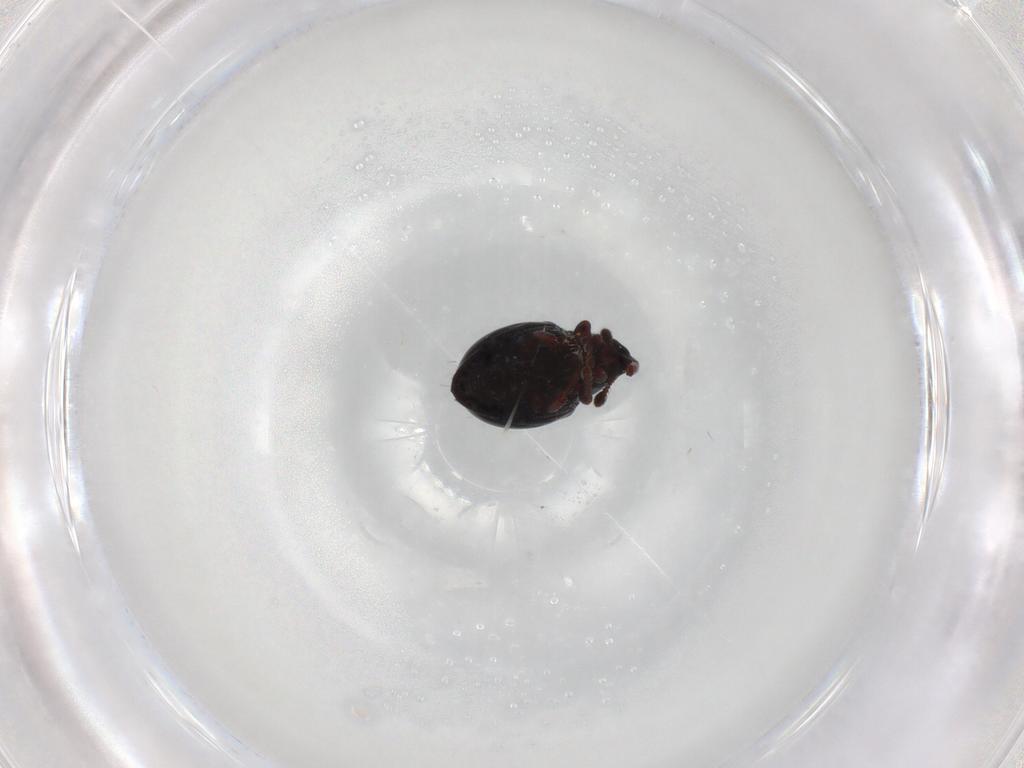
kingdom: Animalia
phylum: Arthropoda
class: Insecta
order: Coleoptera
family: Curculionidae
